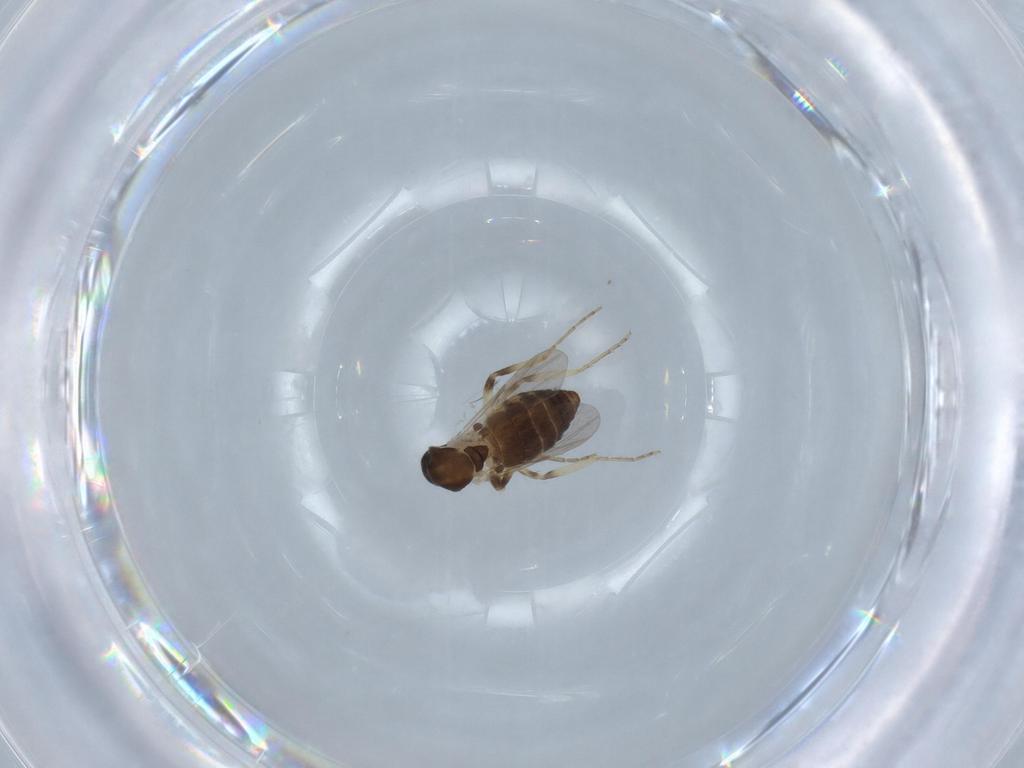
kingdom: Animalia
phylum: Arthropoda
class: Insecta
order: Diptera
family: Ceratopogonidae
